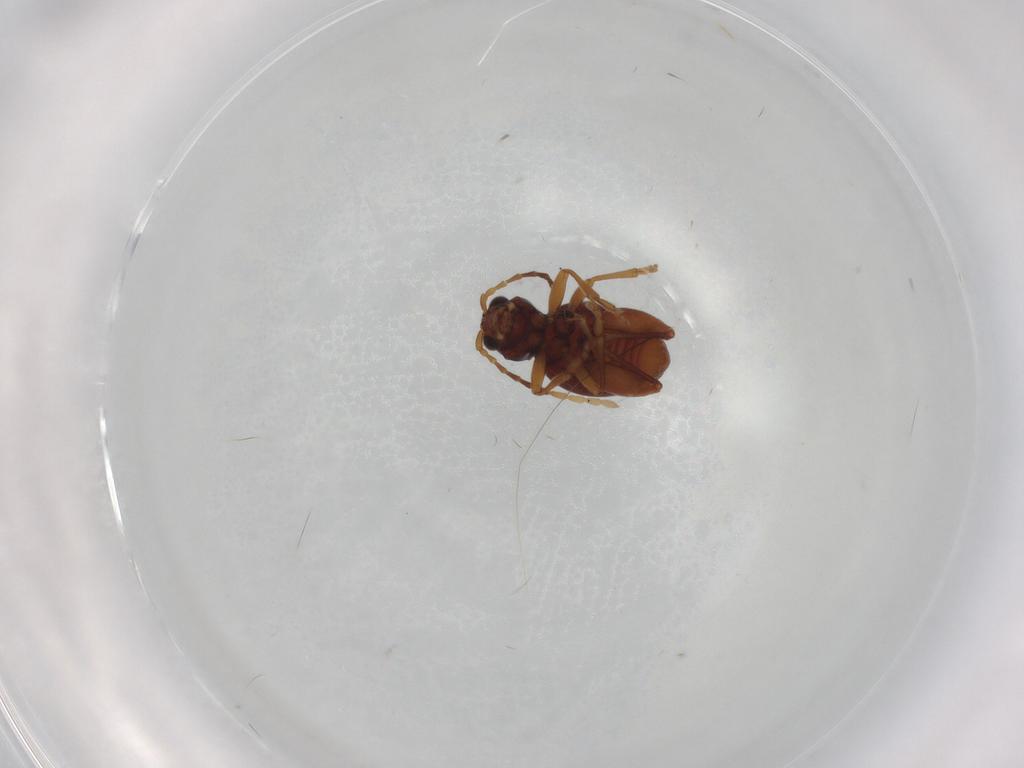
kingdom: Animalia
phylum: Arthropoda
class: Insecta
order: Coleoptera
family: Chrysomelidae
